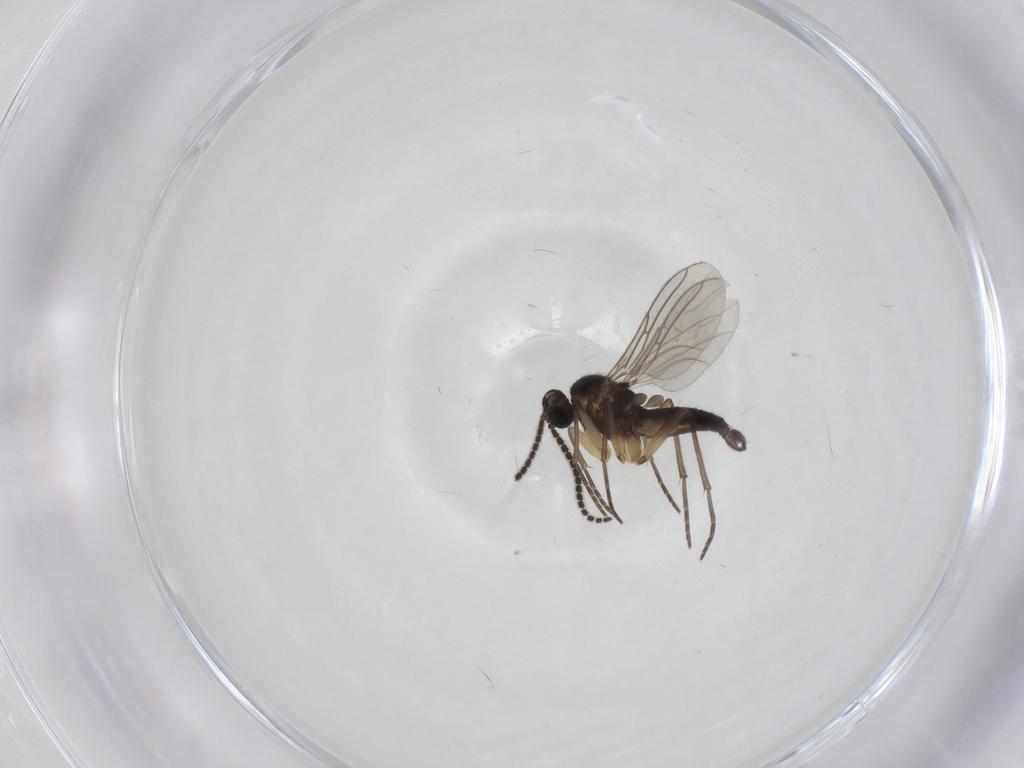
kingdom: Animalia
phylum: Arthropoda
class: Insecta
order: Diptera
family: Sciaridae
